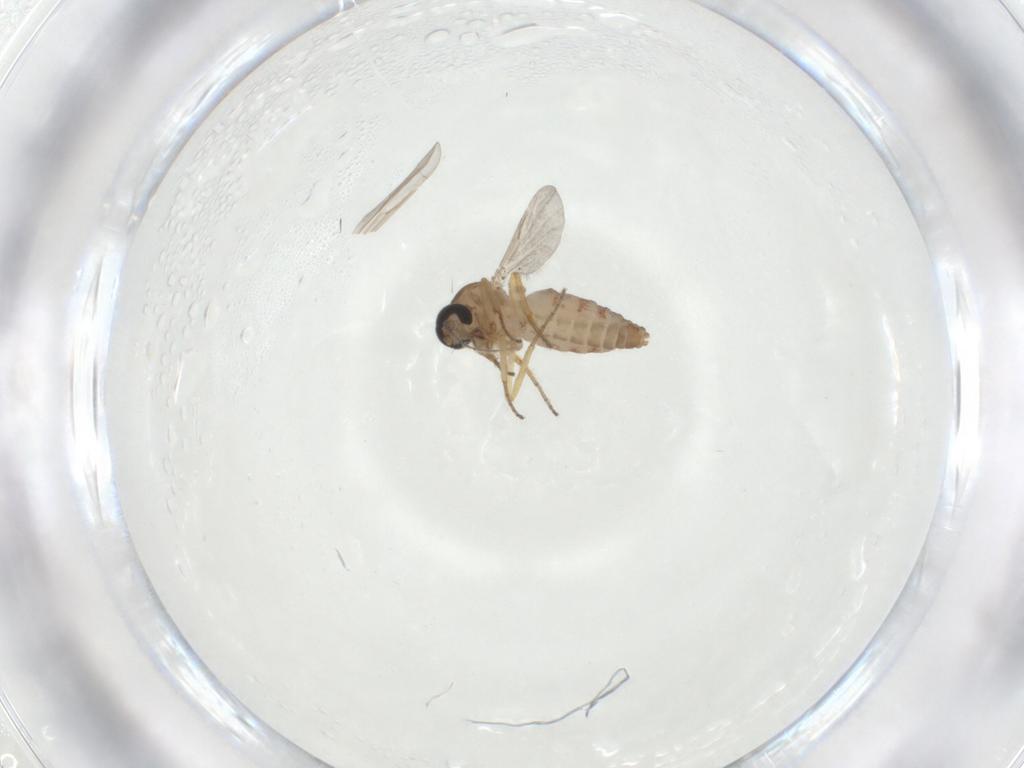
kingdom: Animalia
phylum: Arthropoda
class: Insecta
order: Diptera
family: Ceratopogonidae
